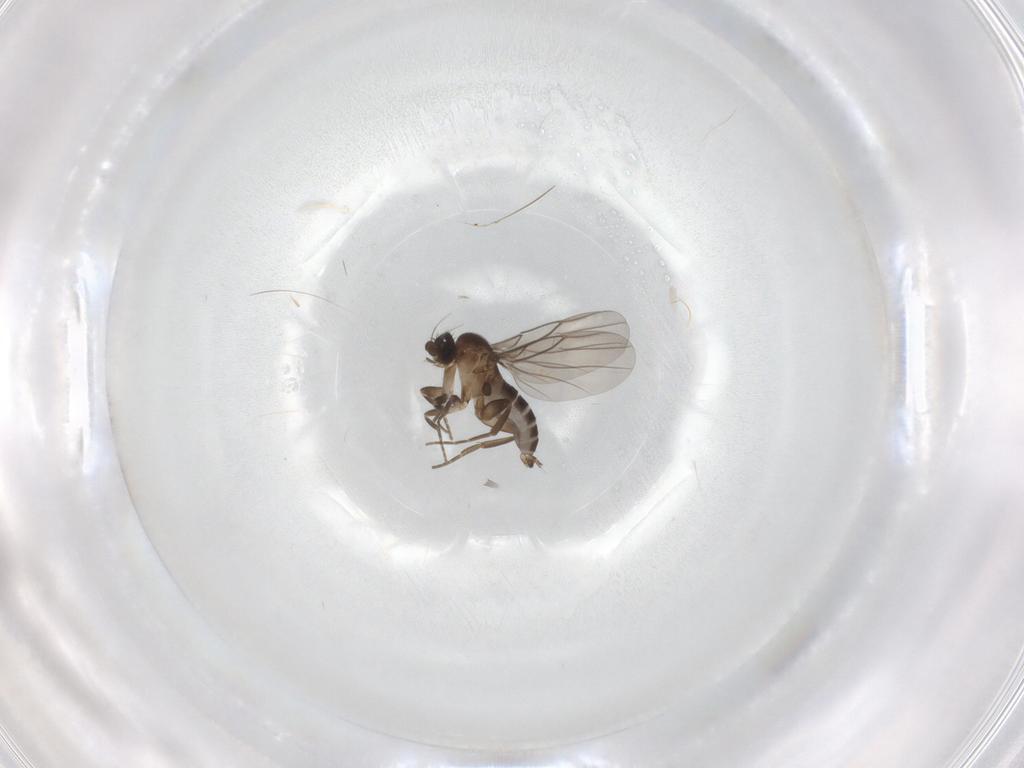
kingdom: Animalia
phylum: Arthropoda
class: Insecta
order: Diptera
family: Phoridae
